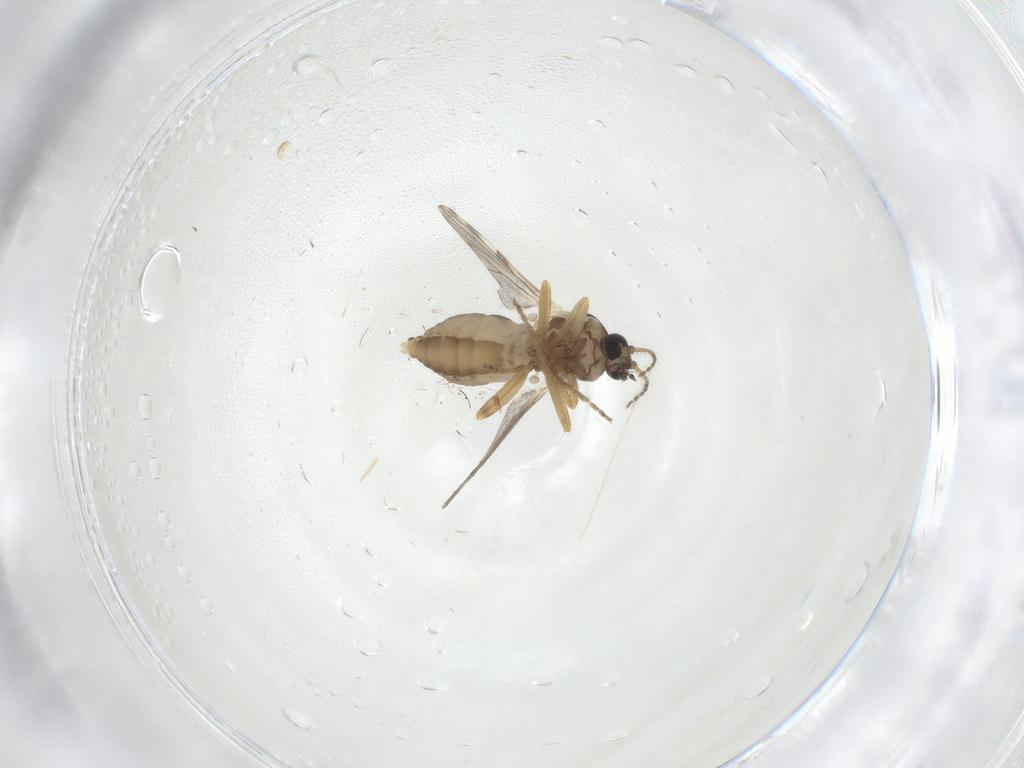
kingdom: Animalia
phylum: Arthropoda
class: Insecta
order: Diptera
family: Ceratopogonidae
